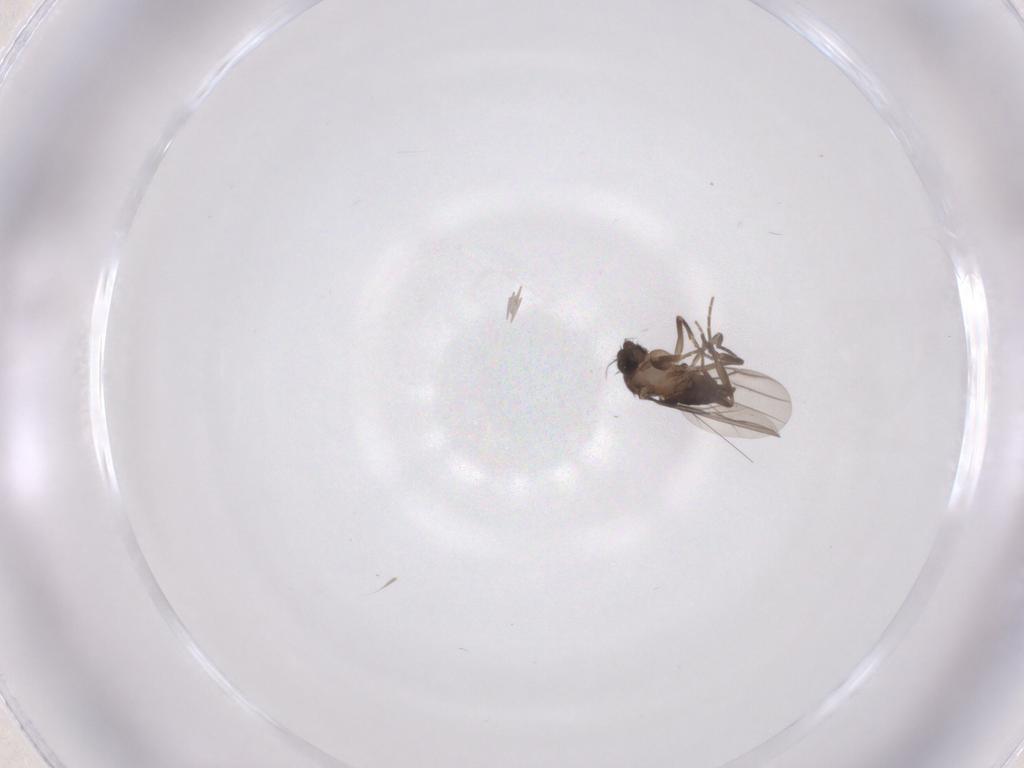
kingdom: Animalia
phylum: Arthropoda
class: Insecta
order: Diptera
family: Phoridae
